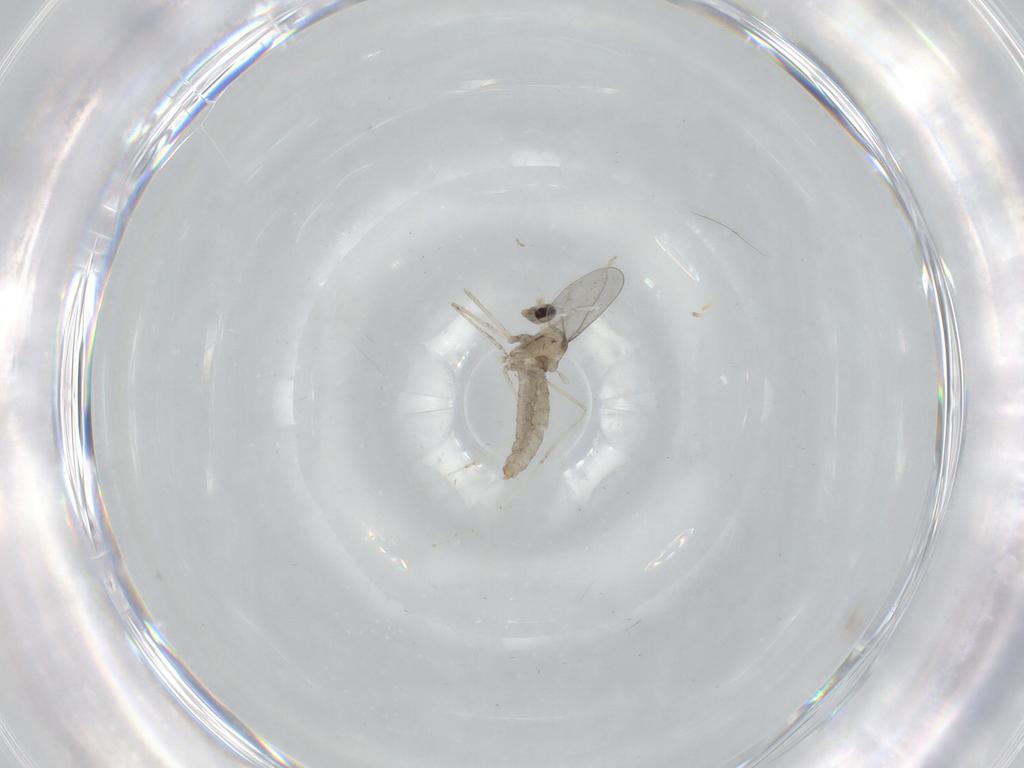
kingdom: Animalia
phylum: Arthropoda
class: Insecta
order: Diptera
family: Cecidomyiidae
